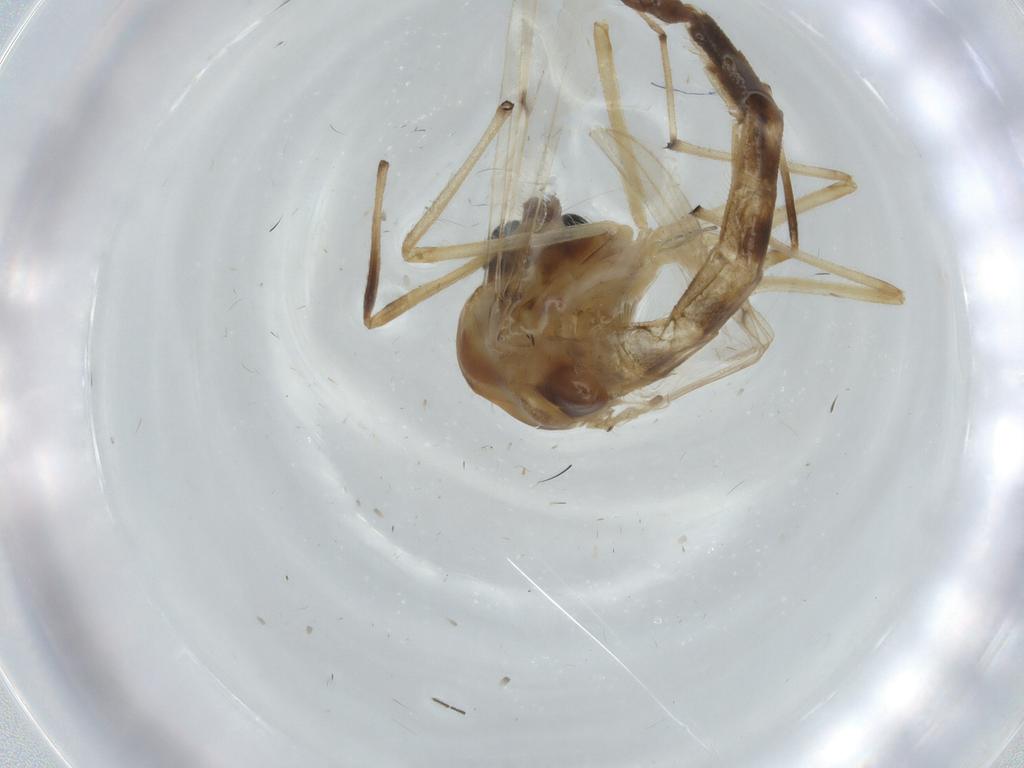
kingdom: Animalia
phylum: Arthropoda
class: Insecta
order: Diptera
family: Chironomidae
